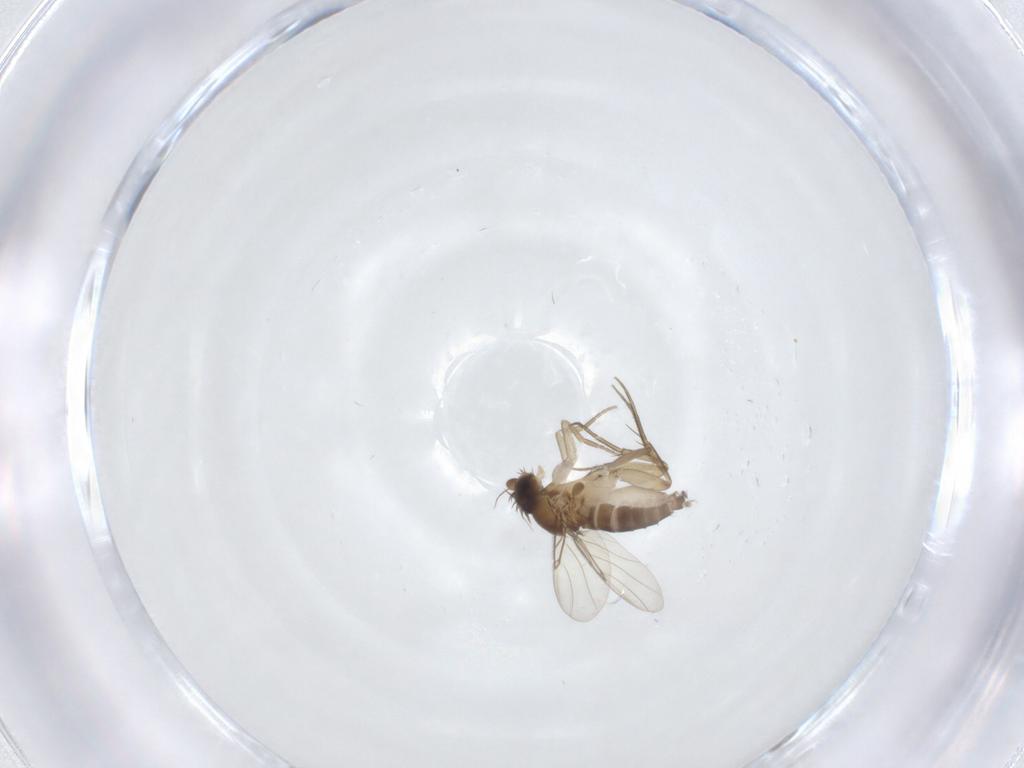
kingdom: Animalia
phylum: Arthropoda
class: Insecta
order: Diptera
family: Phoridae
